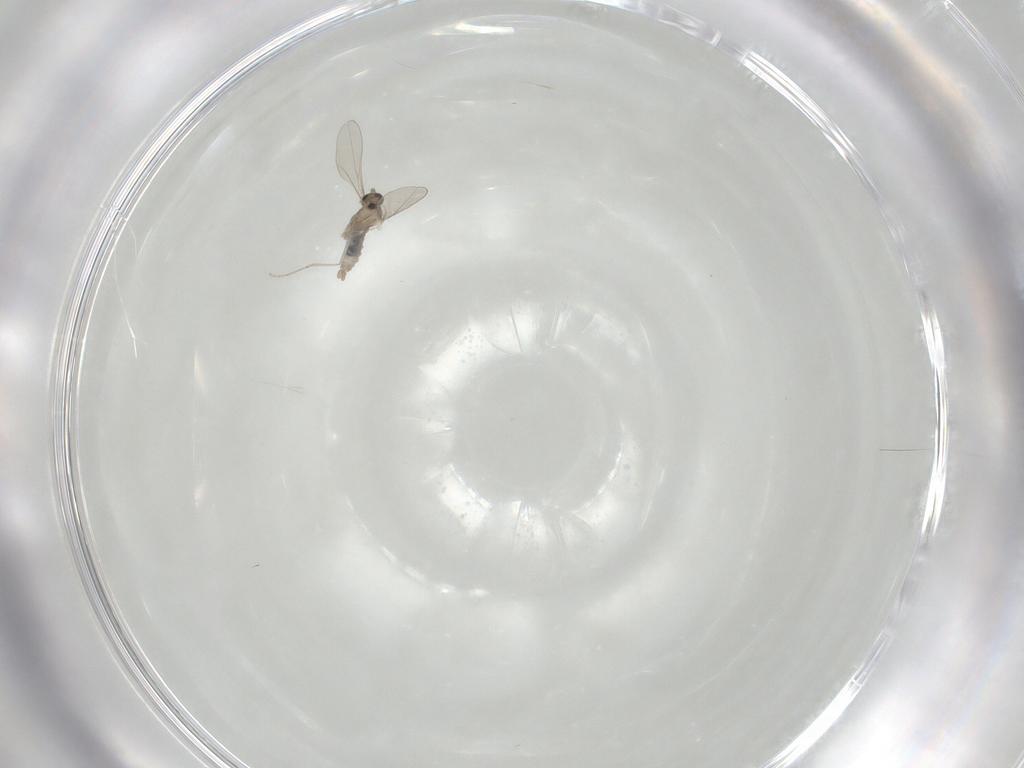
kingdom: Animalia
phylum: Arthropoda
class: Insecta
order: Diptera
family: Cecidomyiidae
